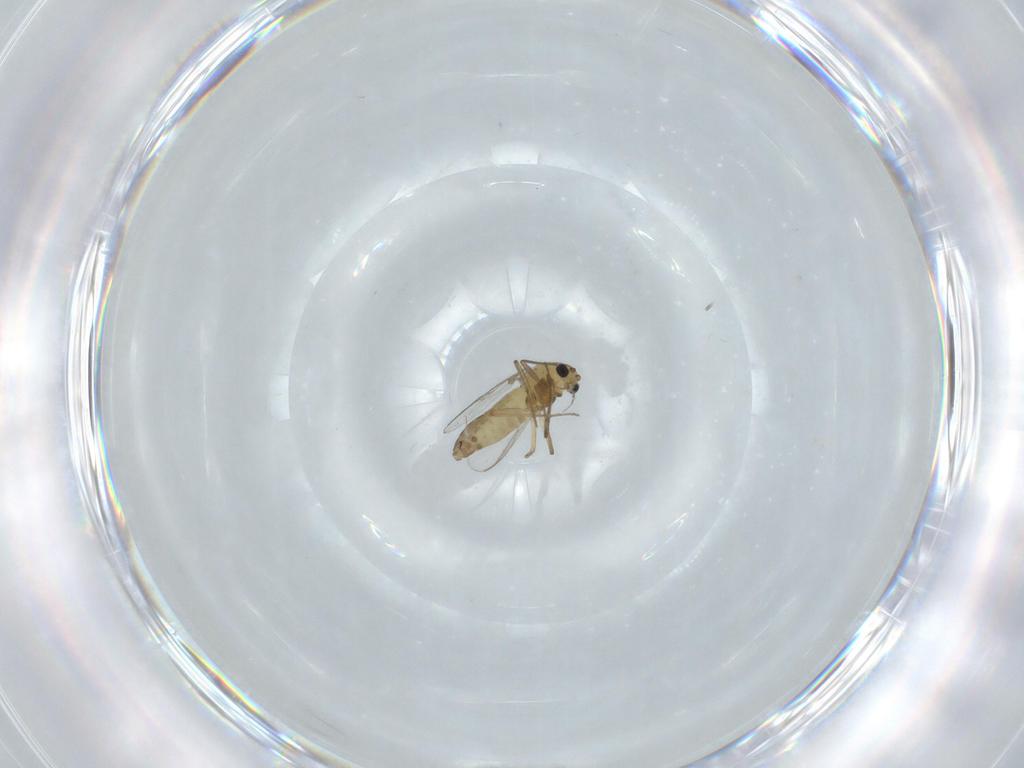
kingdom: Animalia
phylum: Arthropoda
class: Insecta
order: Diptera
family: Chironomidae
